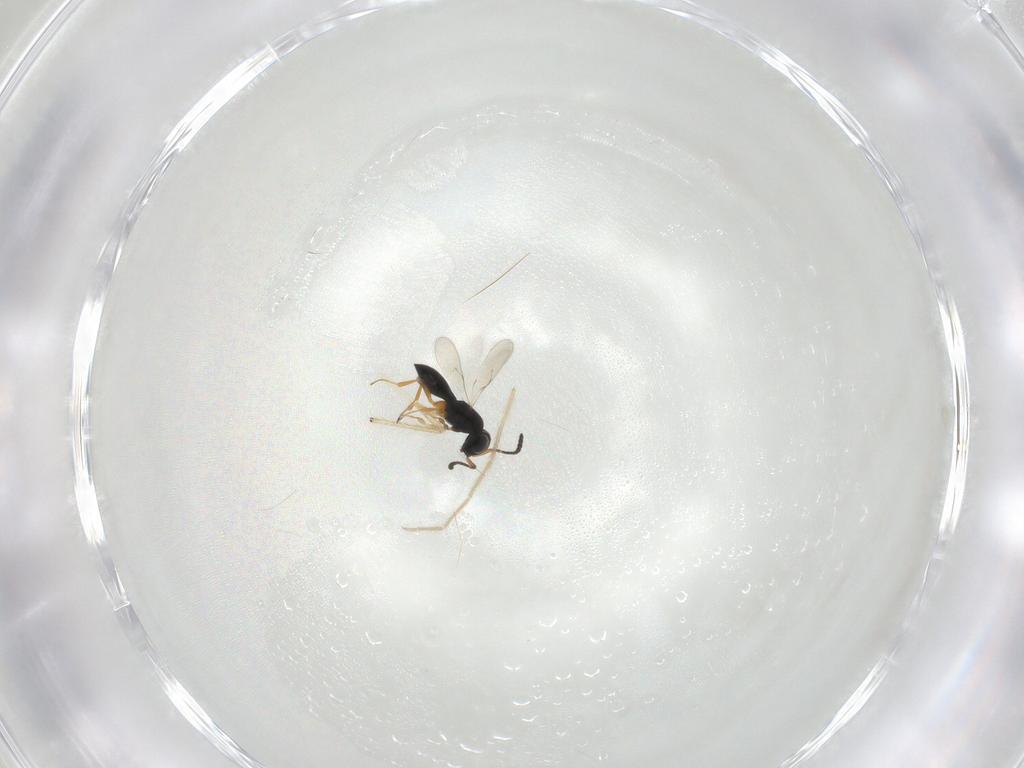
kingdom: Animalia
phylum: Arthropoda
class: Insecta
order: Hymenoptera
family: Scelionidae
